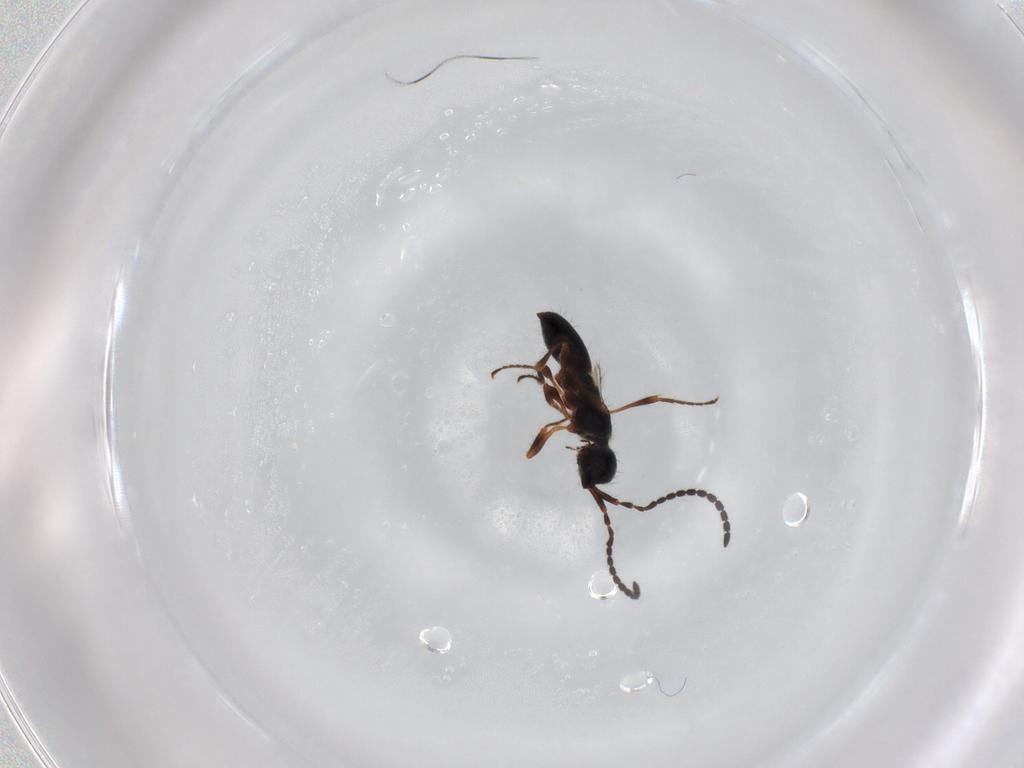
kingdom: Animalia
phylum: Arthropoda
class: Insecta
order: Hymenoptera
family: Diapriidae
